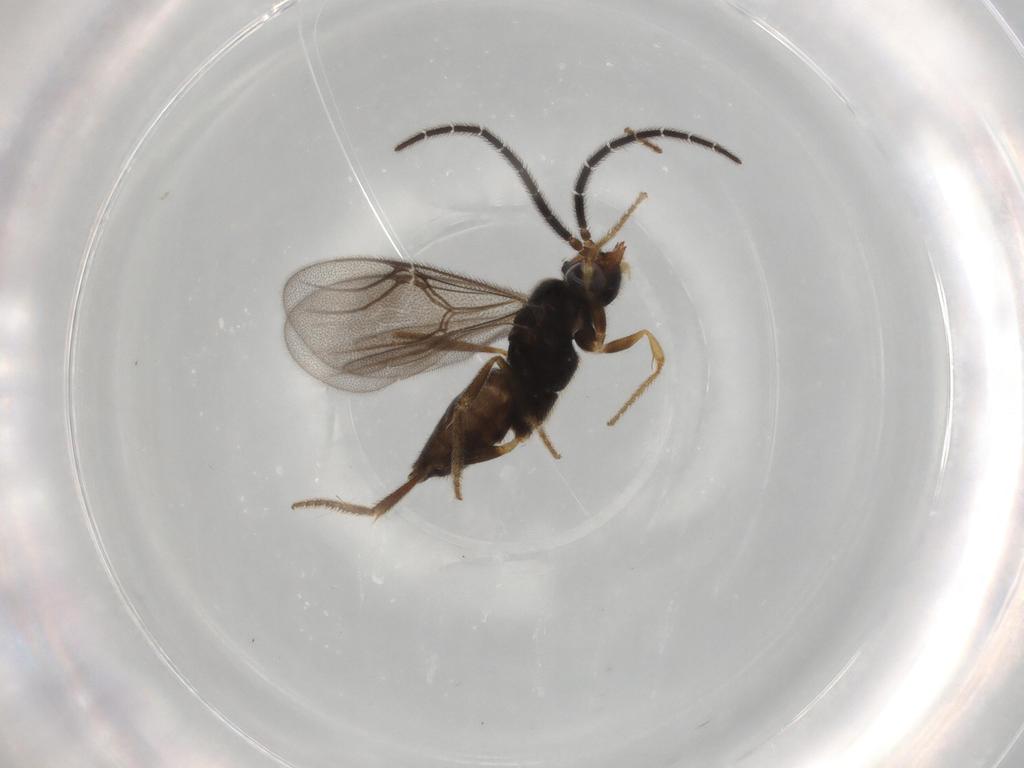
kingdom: Animalia
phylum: Arthropoda
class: Insecta
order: Hymenoptera
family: Dryinidae
